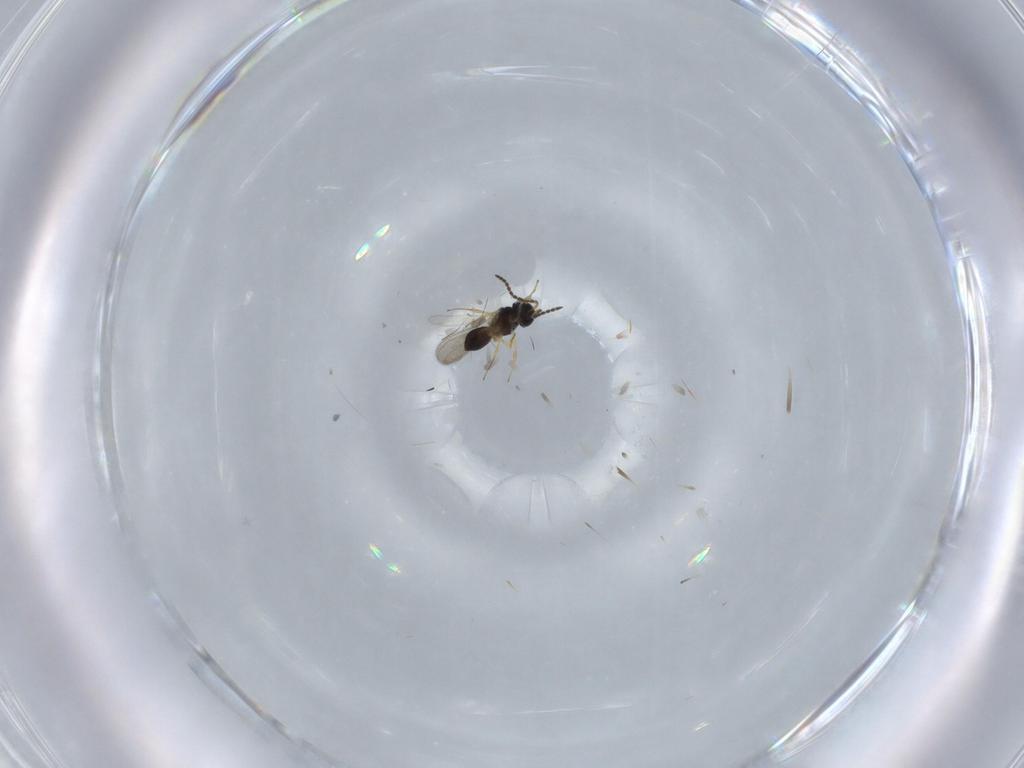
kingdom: Animalia
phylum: Arthropoda
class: Insecta
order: Hymenoptera
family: Scelionidae
